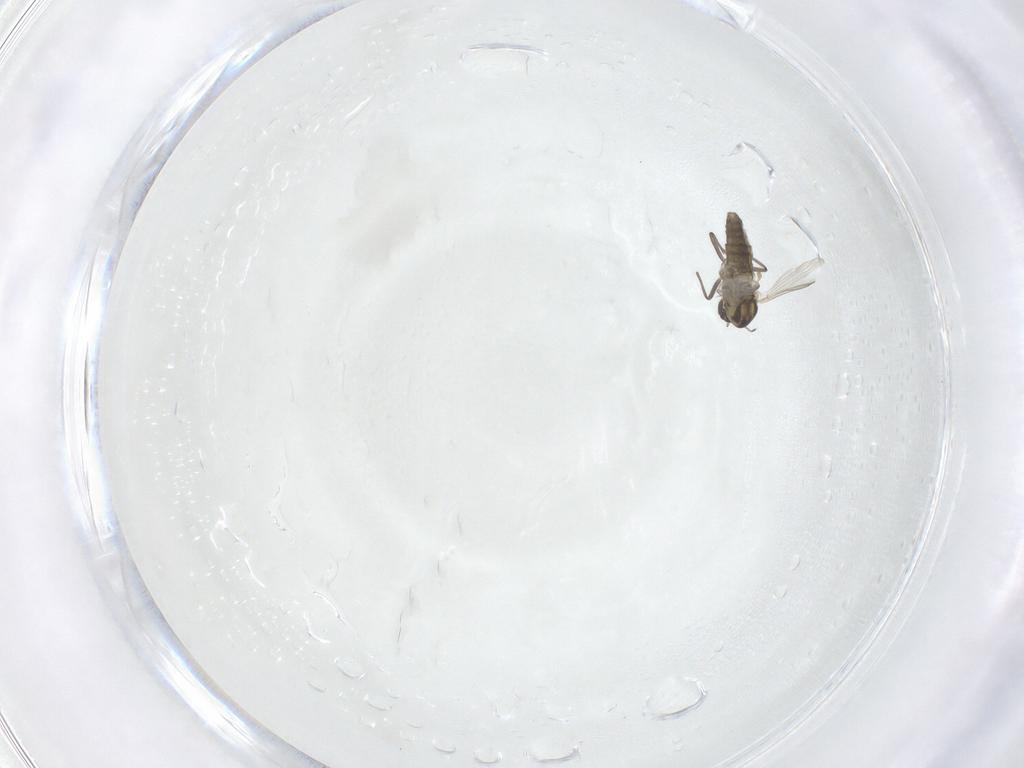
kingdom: Animalia
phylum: Arthropoda
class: Insecta
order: Diptera
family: Chironomidae
